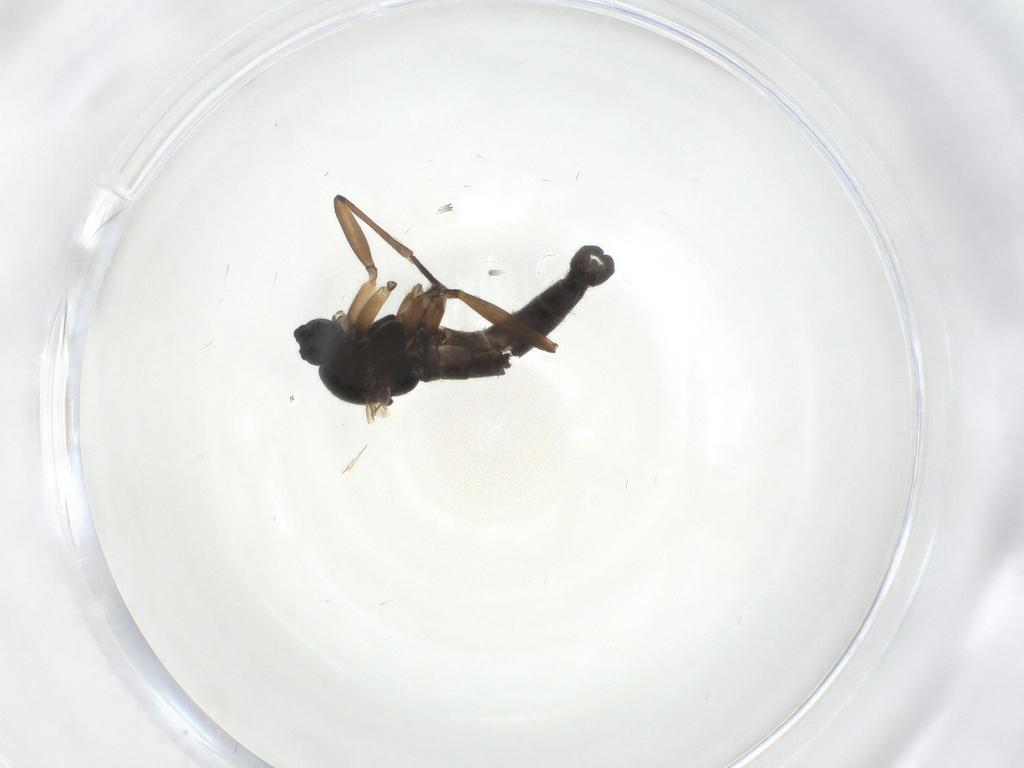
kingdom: Animalia
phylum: Arthropoda
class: Insecta
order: Diptera
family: Sciaridae
